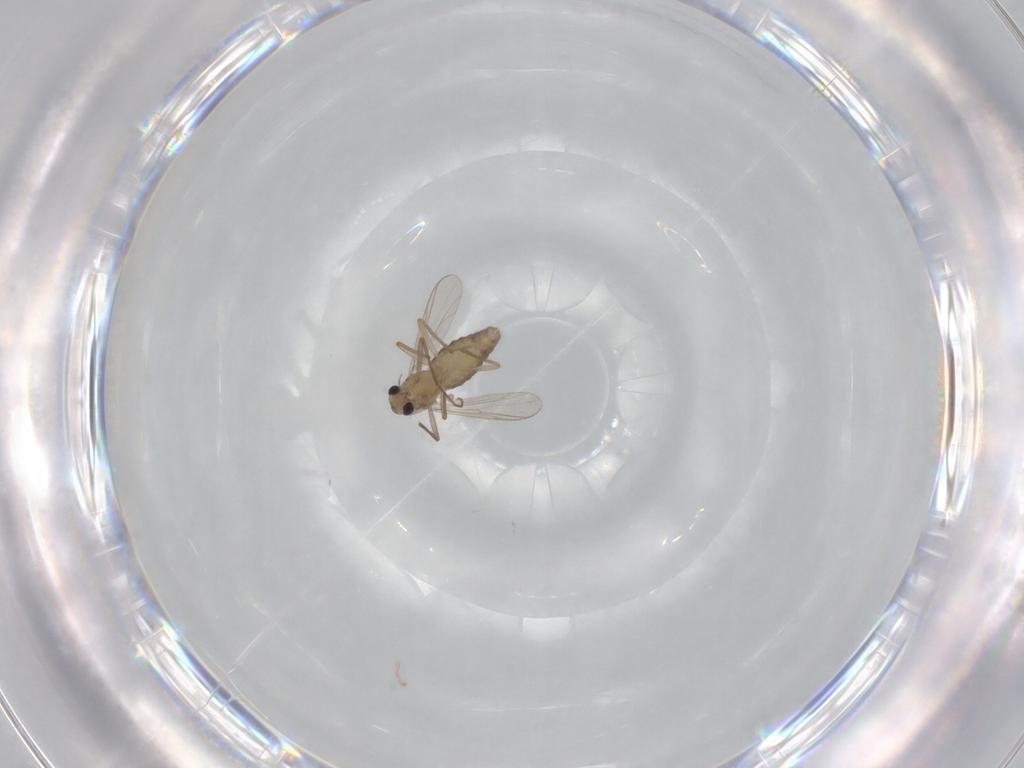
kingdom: Animalia
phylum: Arthropoda
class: Insecta
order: Diptera
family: Chironomidae
